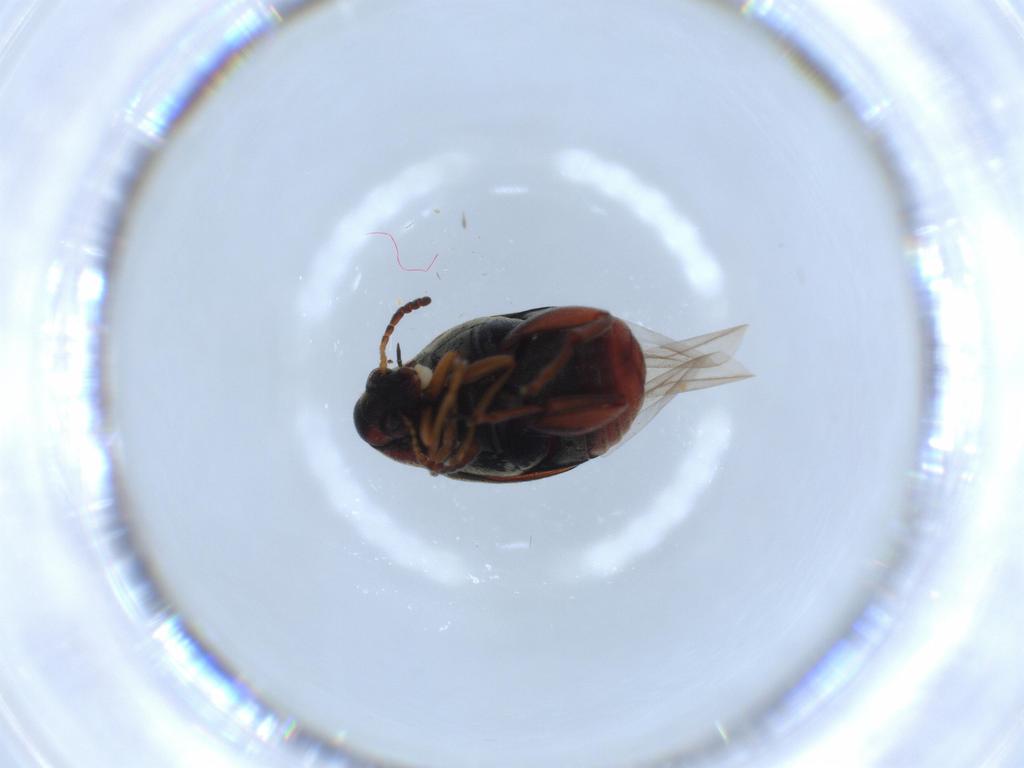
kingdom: Animalia
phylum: Arthropoda
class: Insecta
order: Coleoptera
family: Chrysomelidae
